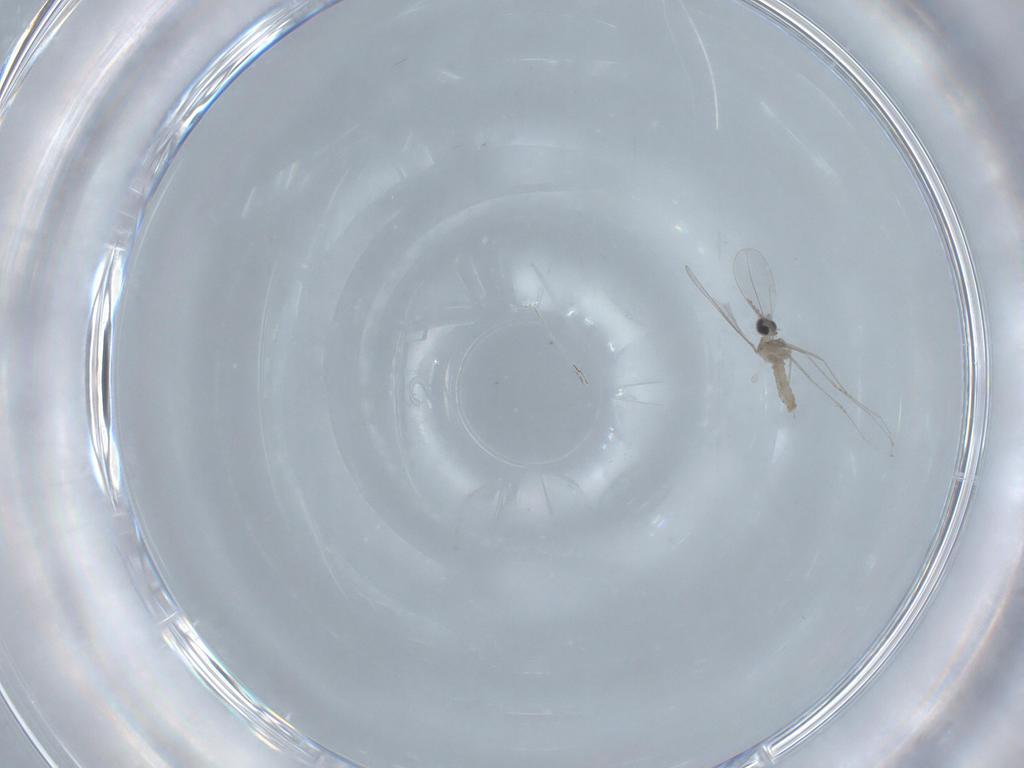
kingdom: Animalia
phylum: Arthropoda
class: Insecta
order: Diptera
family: Cecidomyiidae
